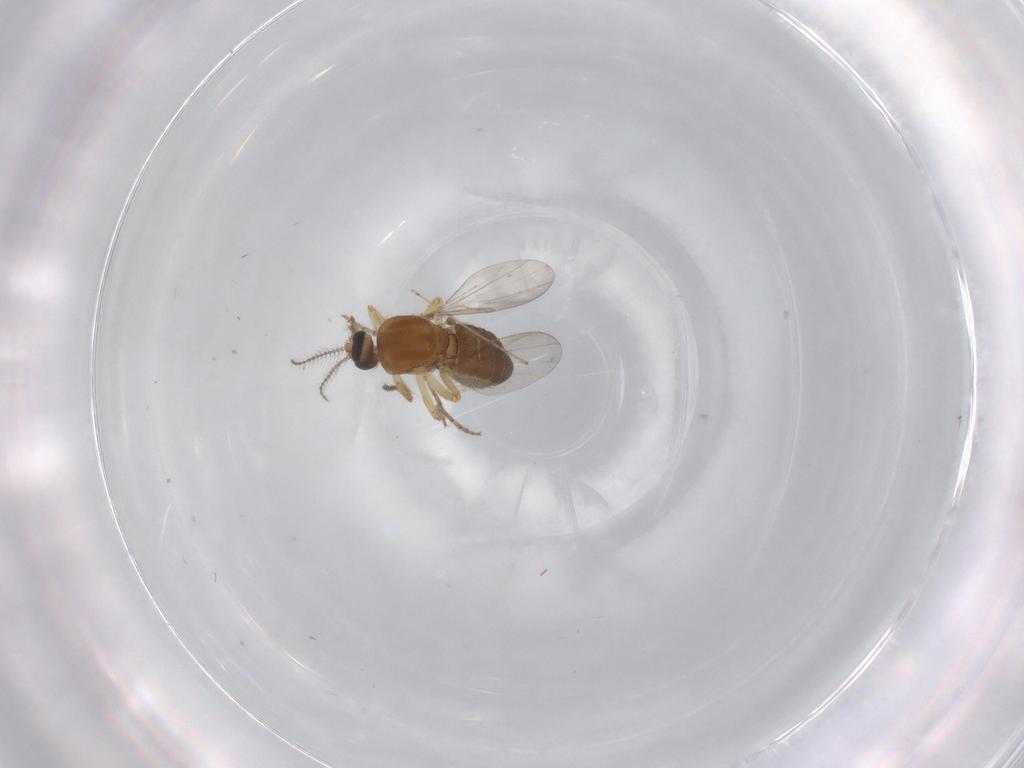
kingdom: Animalia
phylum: Arthropoda
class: Insecta
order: Diptera
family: Ceratopogonidae
